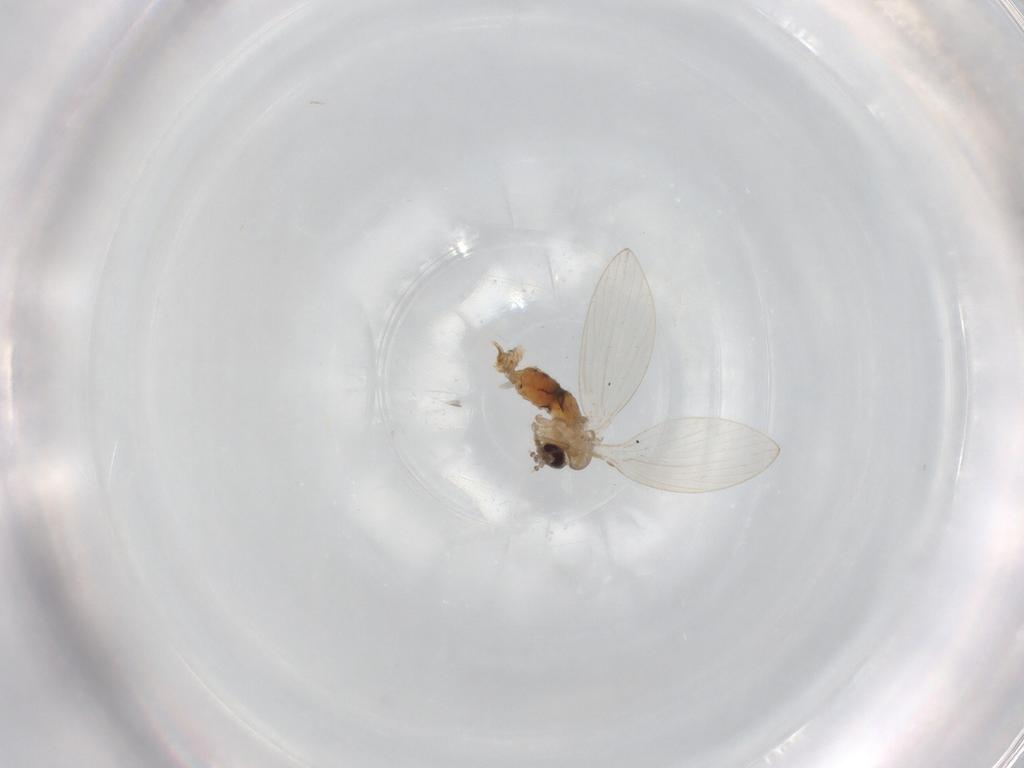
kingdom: Animalia
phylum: Arthropoda
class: Insecta
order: Diptera
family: Psychodidae
